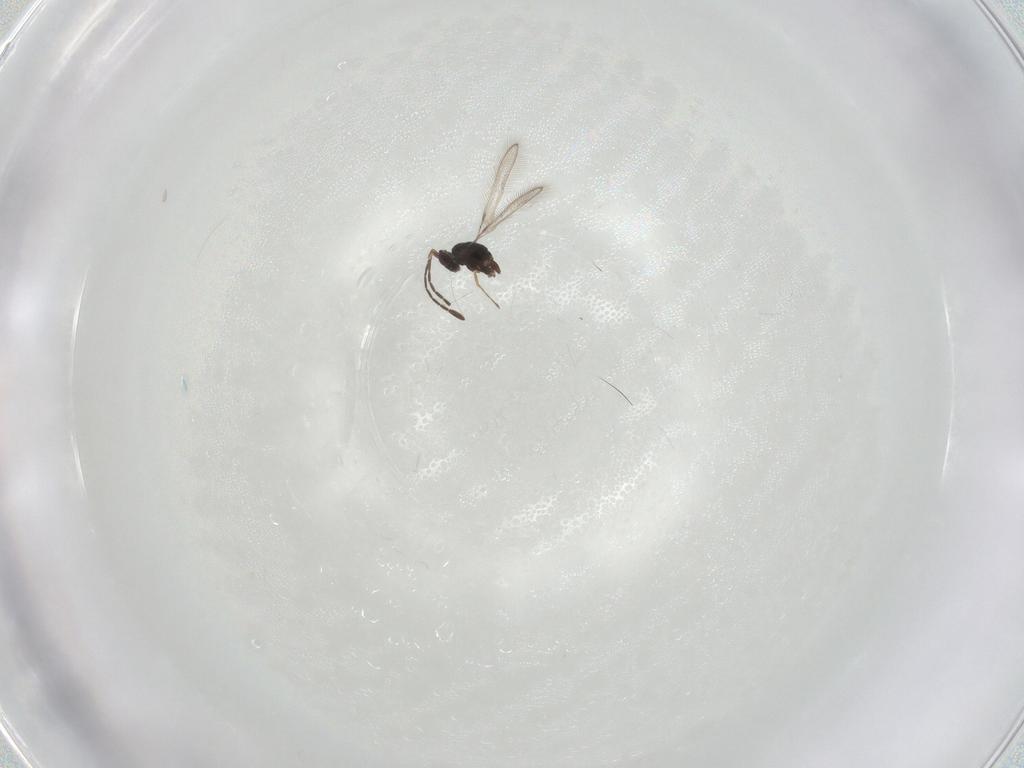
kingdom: Animalia
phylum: Arthropoda
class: Insecta
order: Hymenoptera
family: Mymaridae
